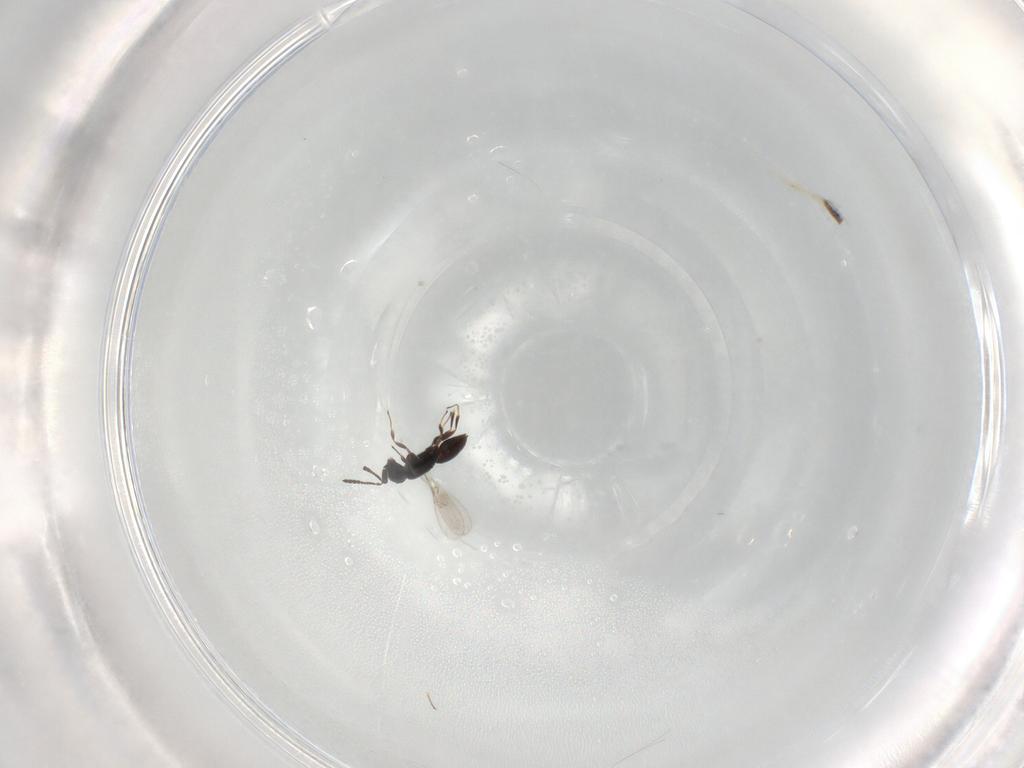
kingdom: Animalia
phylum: Arthropoda
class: Insecta
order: Hymenoptera
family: Scelionidae
